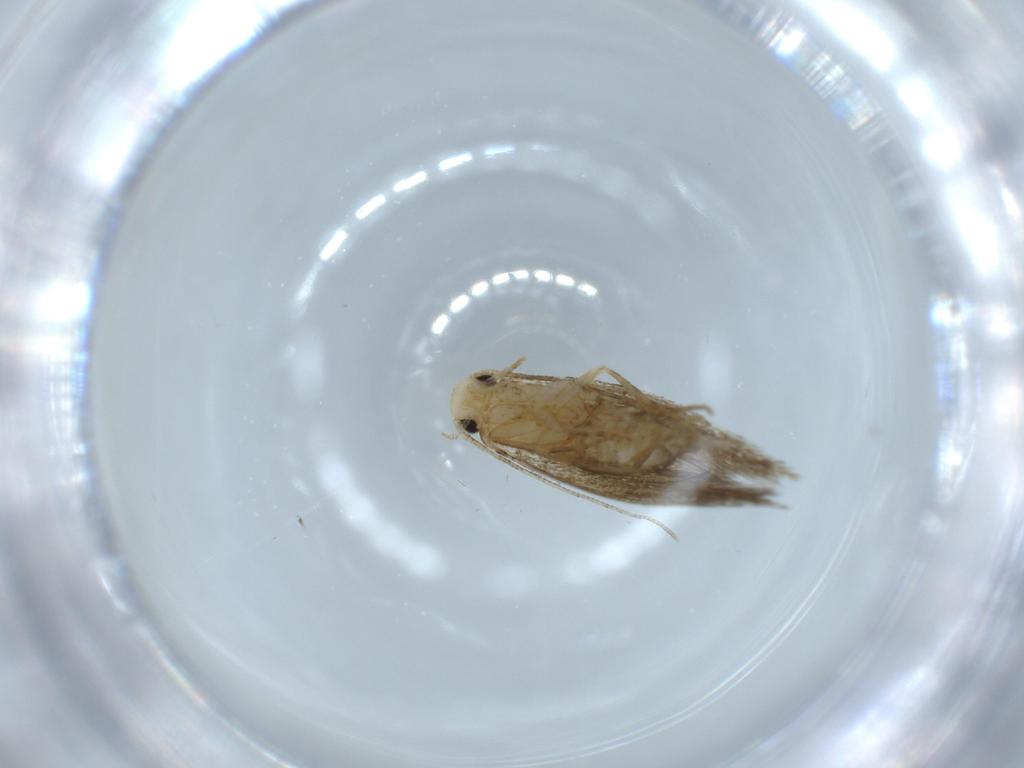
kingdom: Animalia
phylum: Arthropoda
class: Insecta
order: Lepidoptera
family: Tineidae
